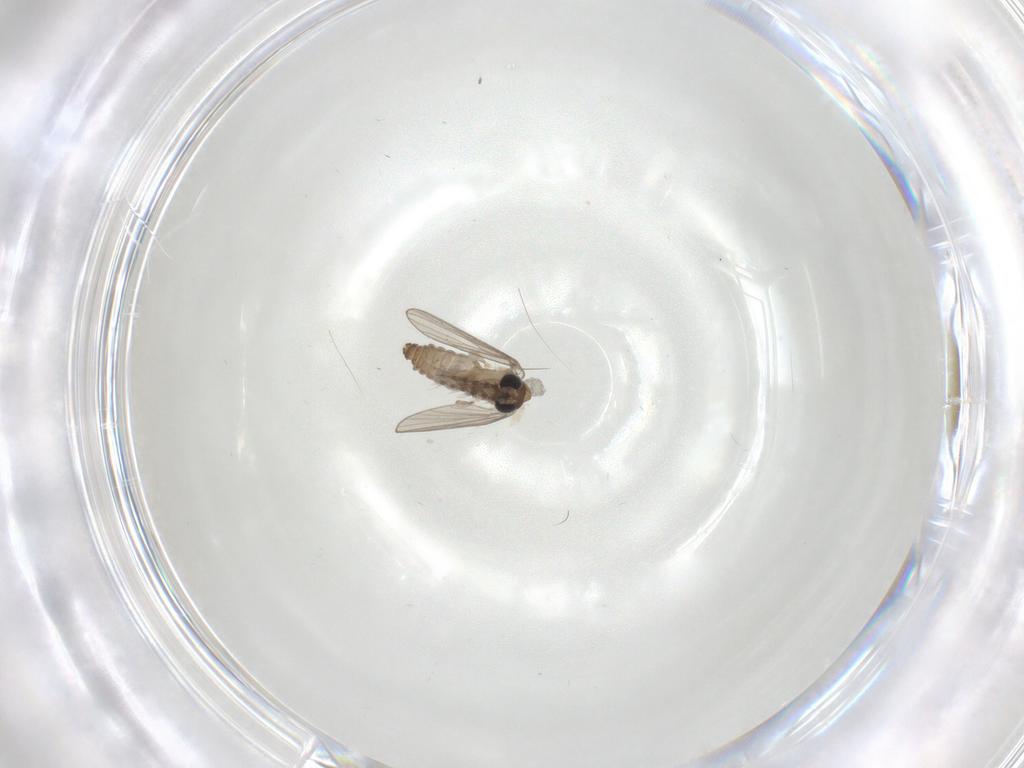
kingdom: Animalia
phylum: Arthropoda
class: Insecta
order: Diptera
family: Psychodidae
